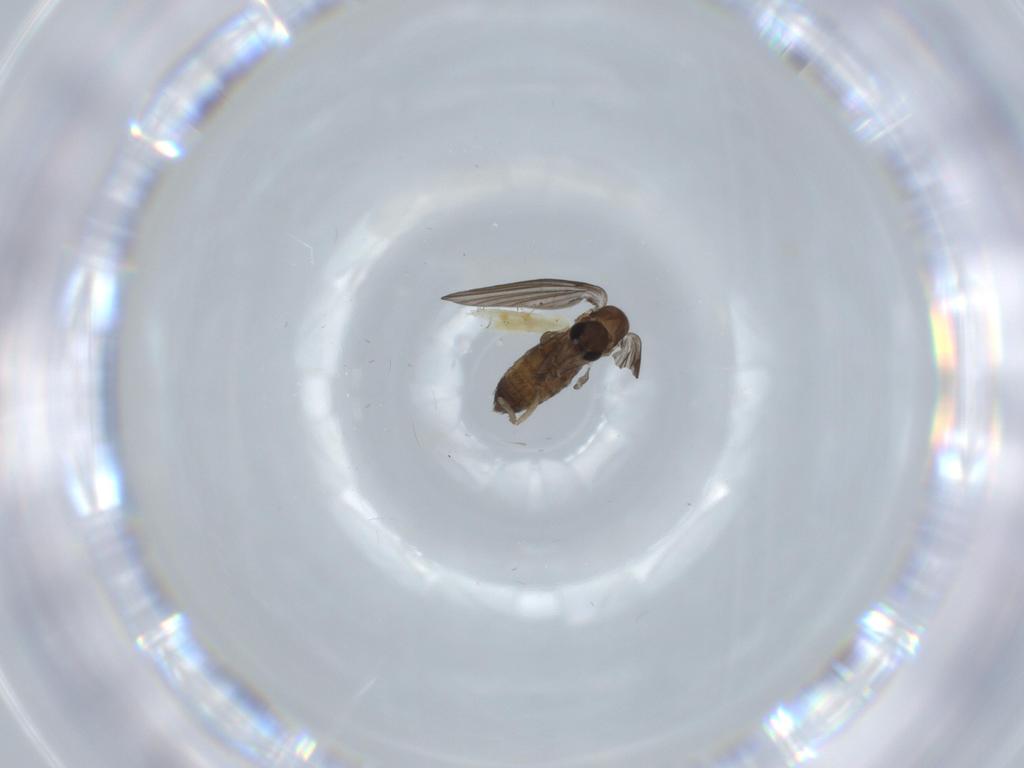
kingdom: Animalia
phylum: Arthropoda
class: Insecta
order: Diptera
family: Psychodidae
